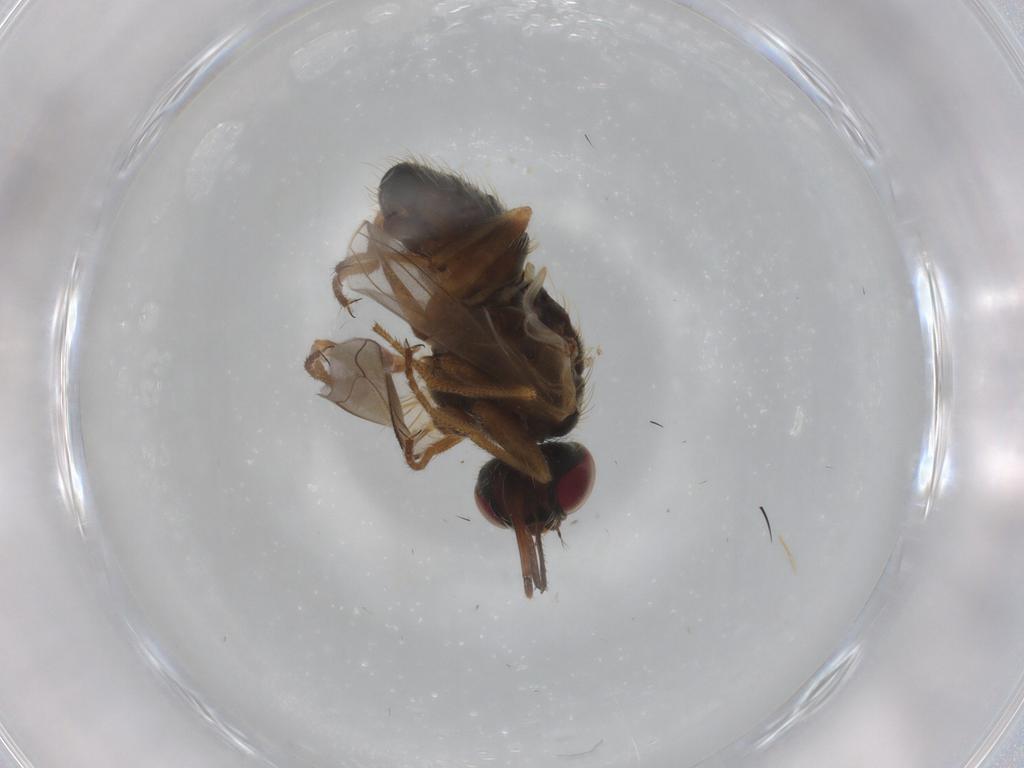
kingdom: Animalia
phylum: Arthropoda
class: Insecta
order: Diptera
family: Muscidae
